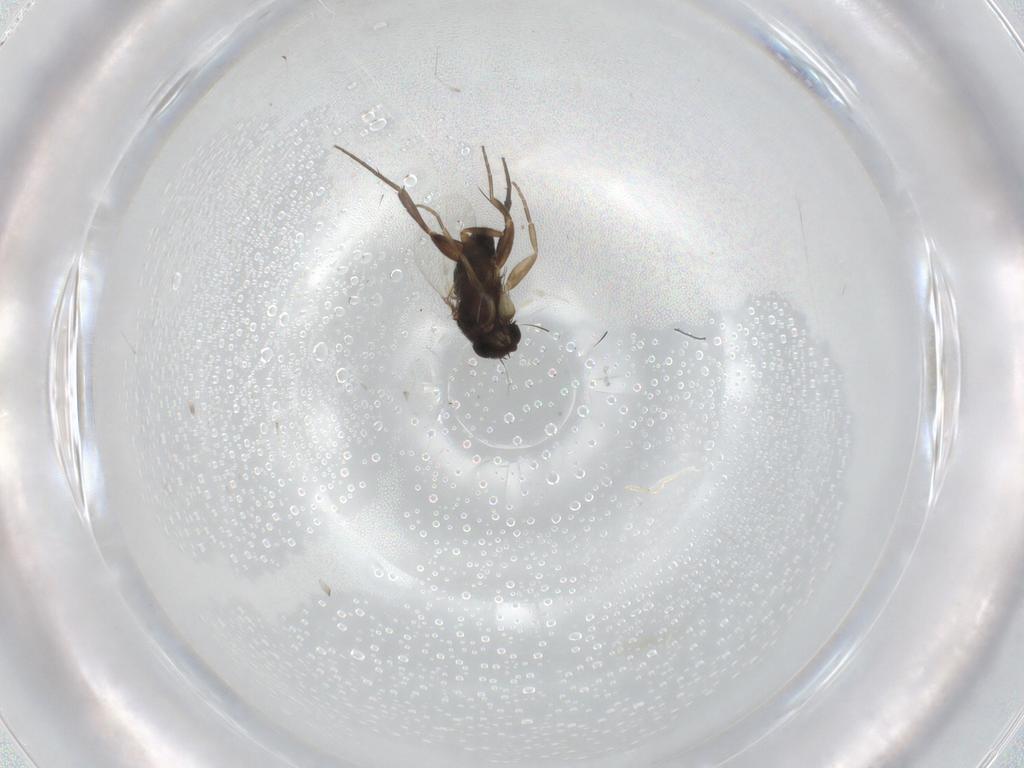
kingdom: Animalia
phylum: Arthropoda
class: Insecta
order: Diptera
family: Phoridae
